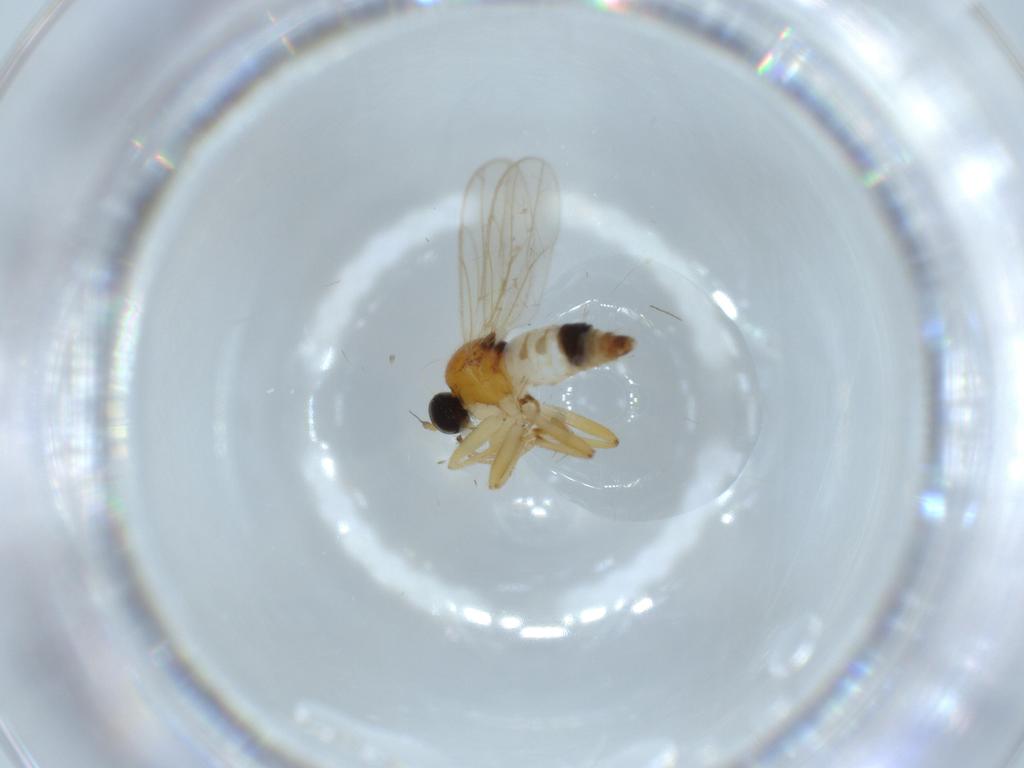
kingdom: Animalia
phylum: Arthropoda
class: Insecta
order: Diptera
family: Hybotidae
